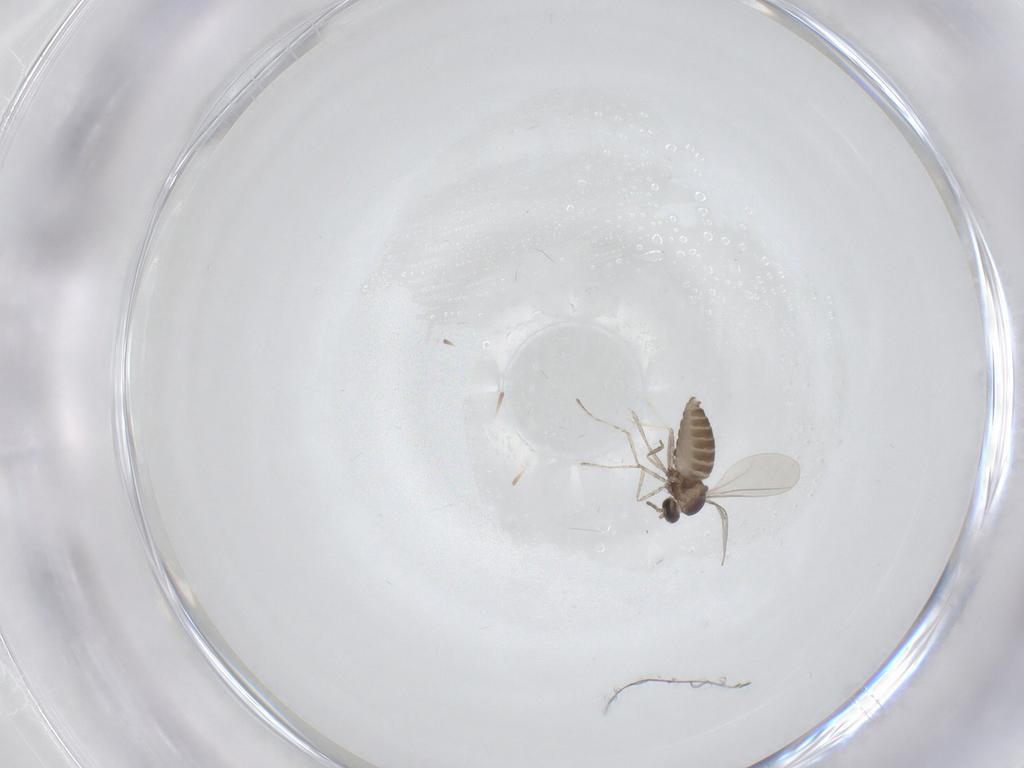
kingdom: Animalia
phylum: Arthropoda
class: Insecta
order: Diptera
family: Cecidomyiidae
